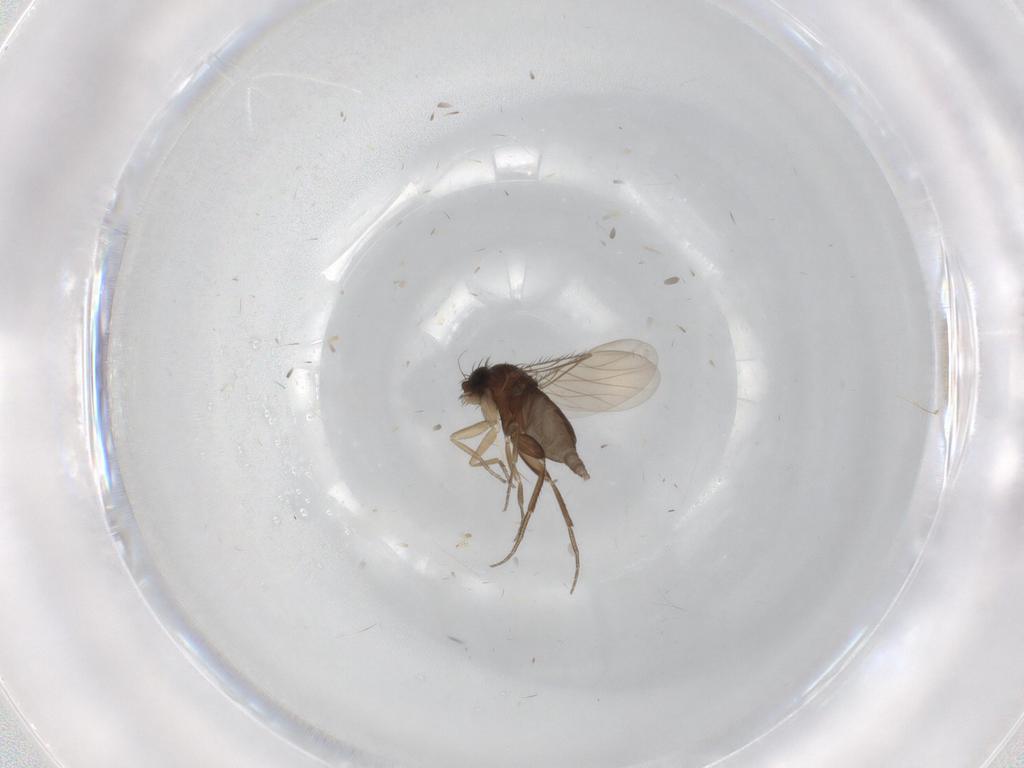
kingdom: Animalia
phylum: Arthropoda
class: Insecta
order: Diptera
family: Phoridae
